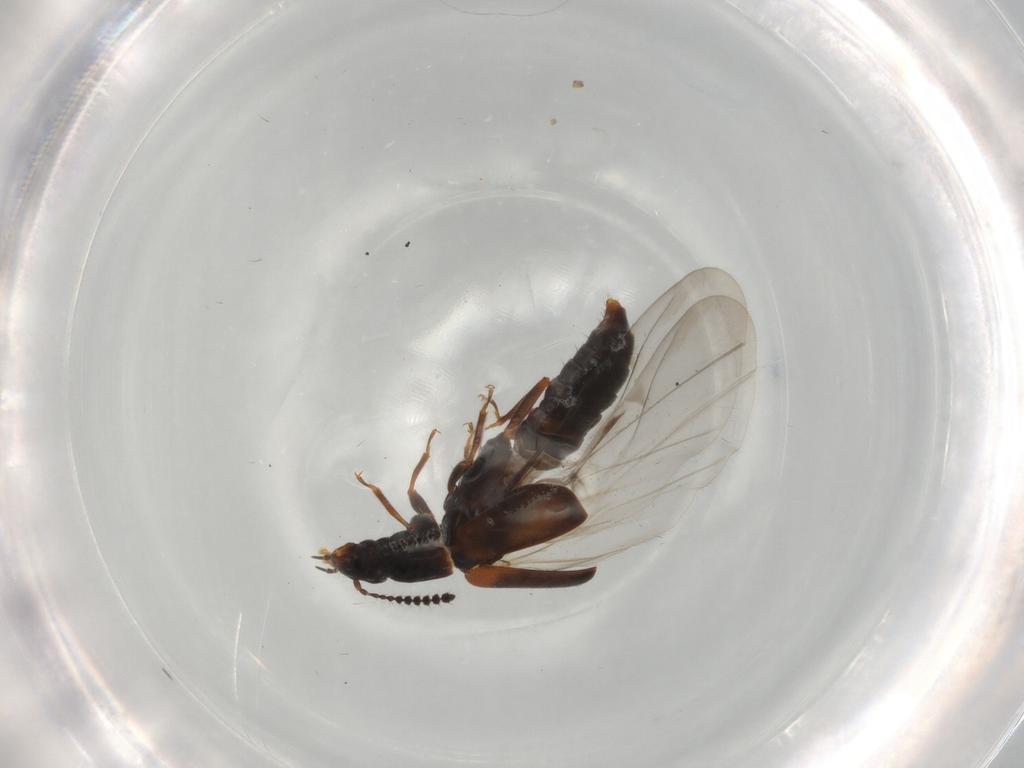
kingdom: Animalia
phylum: Arthropoda
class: Insecta
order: Coleoptera
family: Staphylinidae
